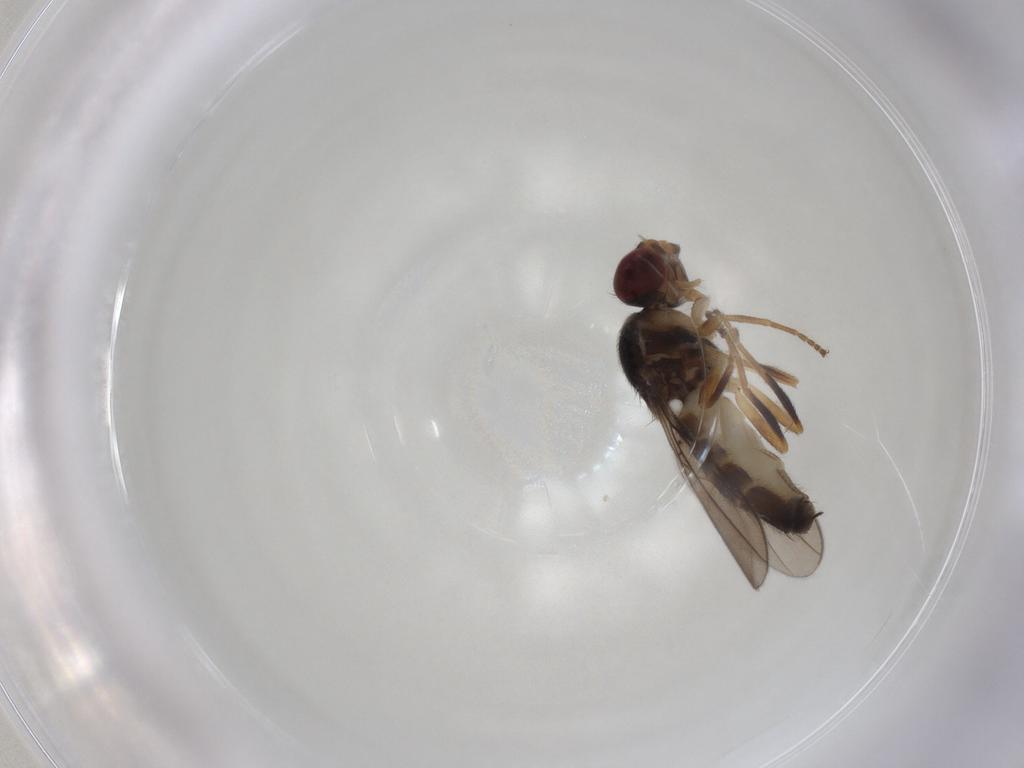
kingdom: Animalia
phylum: Arthropoda
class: Insecta
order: Diptera
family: Chloropidae
